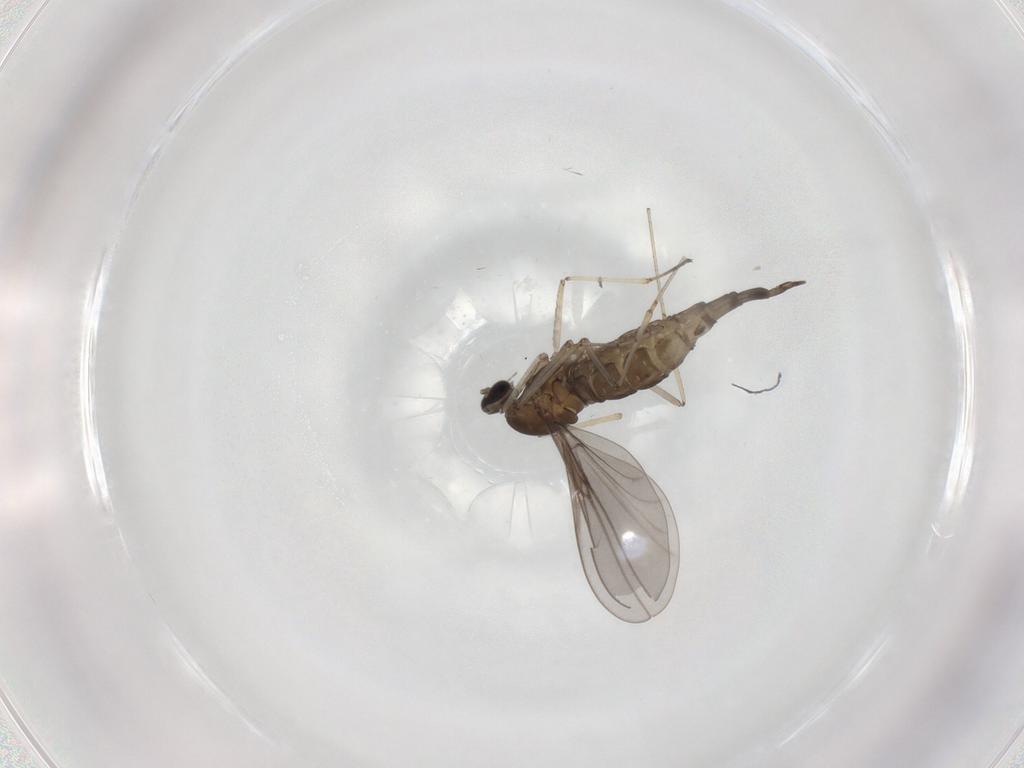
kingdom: Animalia
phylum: Arthropoda
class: Insecta
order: Diptera
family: Cecidomyiidae
